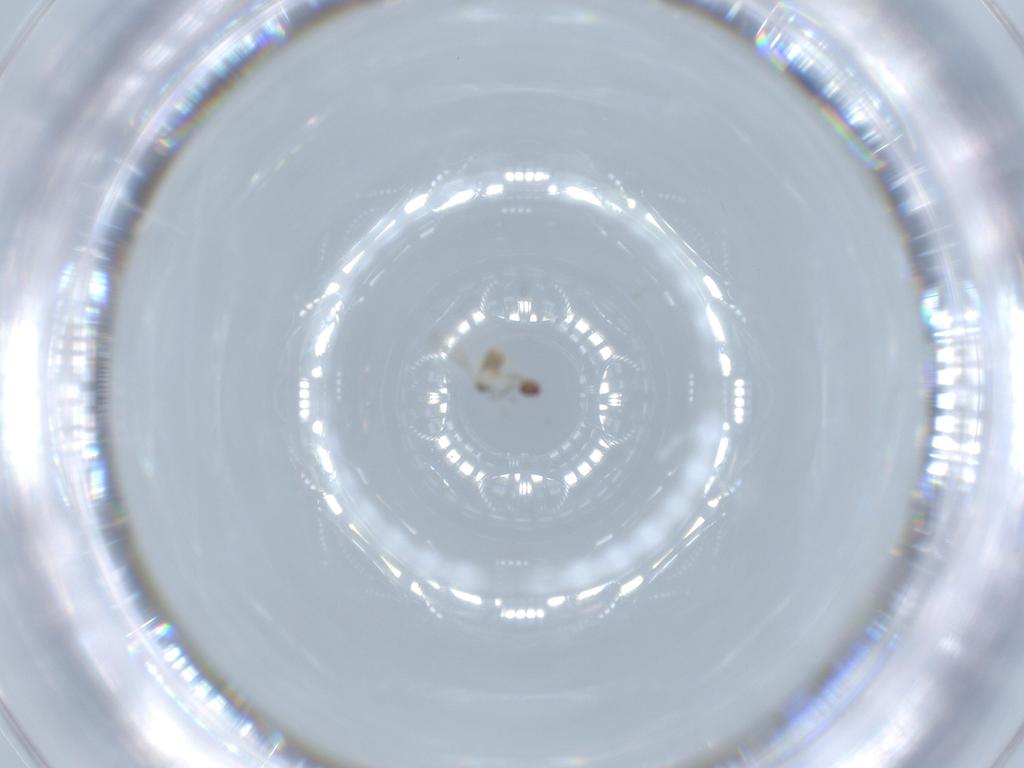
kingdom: Animalia
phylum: Arthropoda
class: Insecta
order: Hymenoptera
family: Aphelinidae
